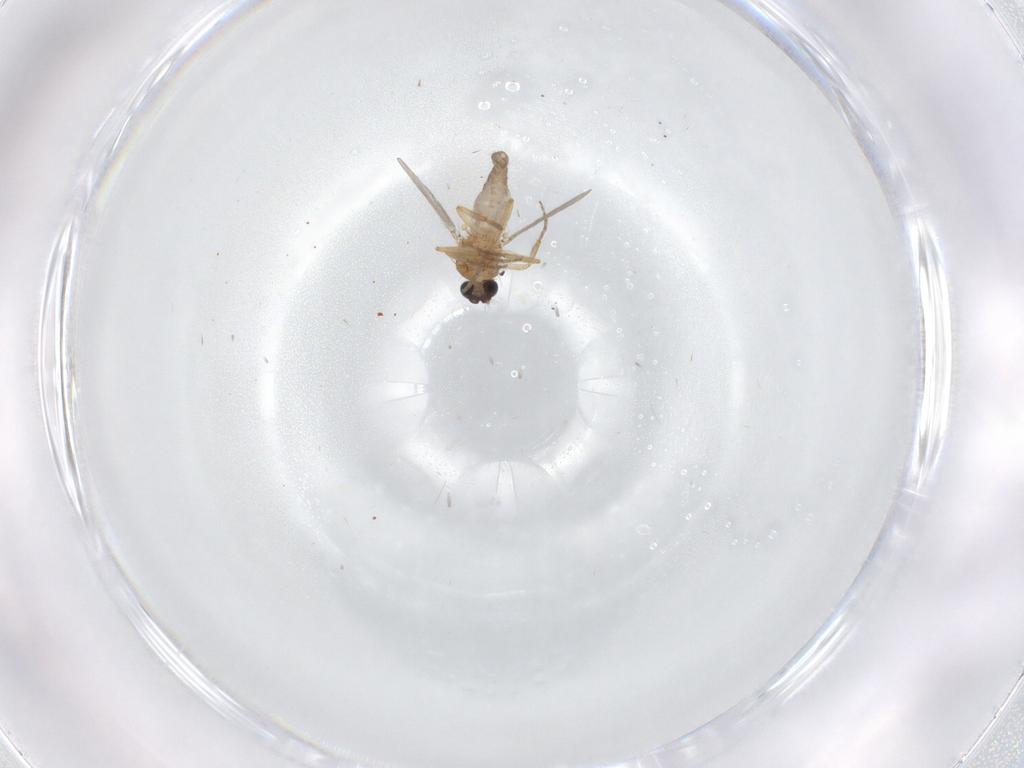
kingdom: Animalia
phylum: Arthropoda
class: Insecta
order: Diptera
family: Ceratopogonidae
